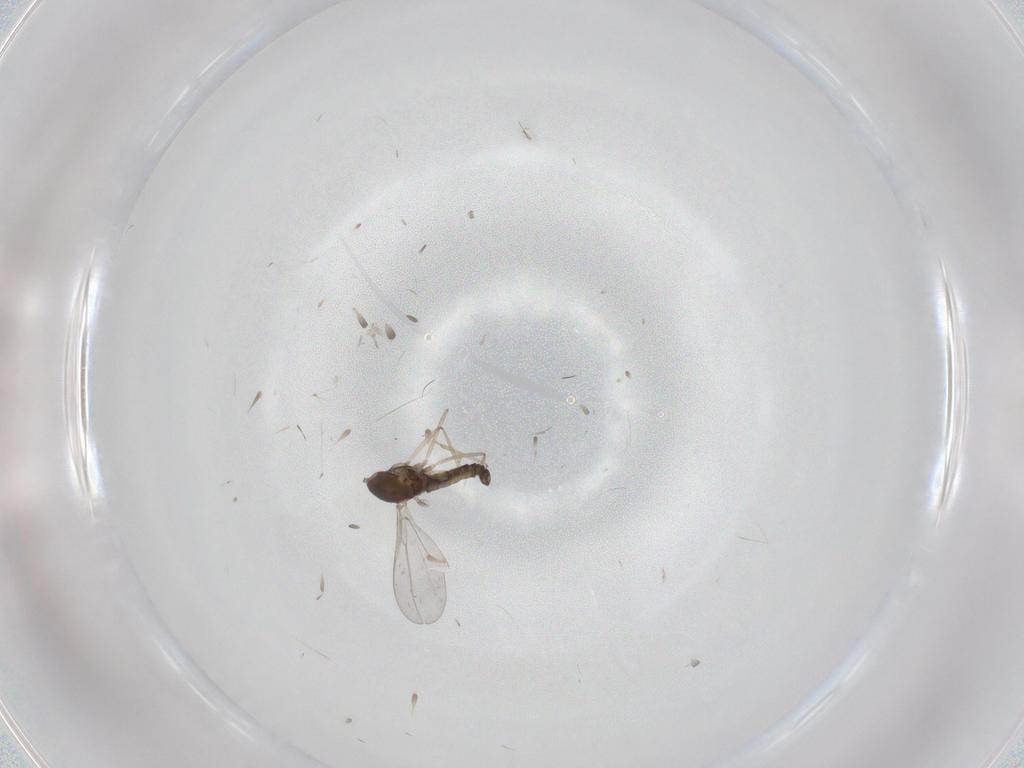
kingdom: Animalia
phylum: Arthropoda
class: Insecta
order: Diptera
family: Cecidomyiidae
